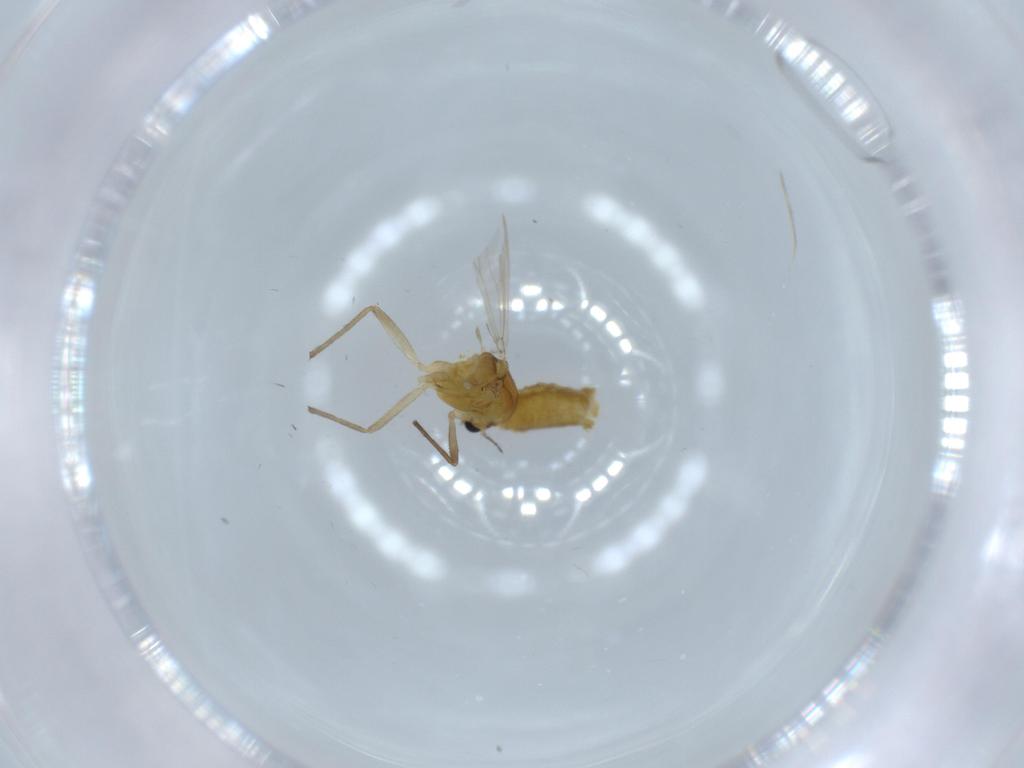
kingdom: Animalia
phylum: Arthropoda
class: Insecta
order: Diptera
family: Chironomidae
